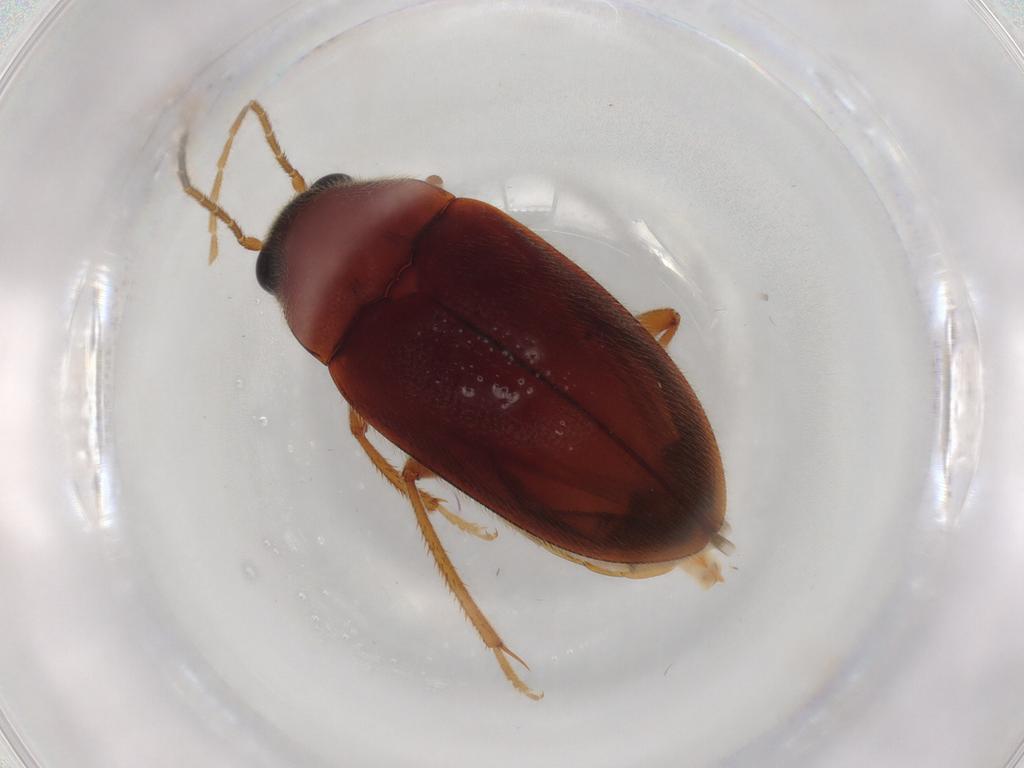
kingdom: Animalia
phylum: Arthropoda
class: Insecta
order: Coleoptera
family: Ptilodactylidae
